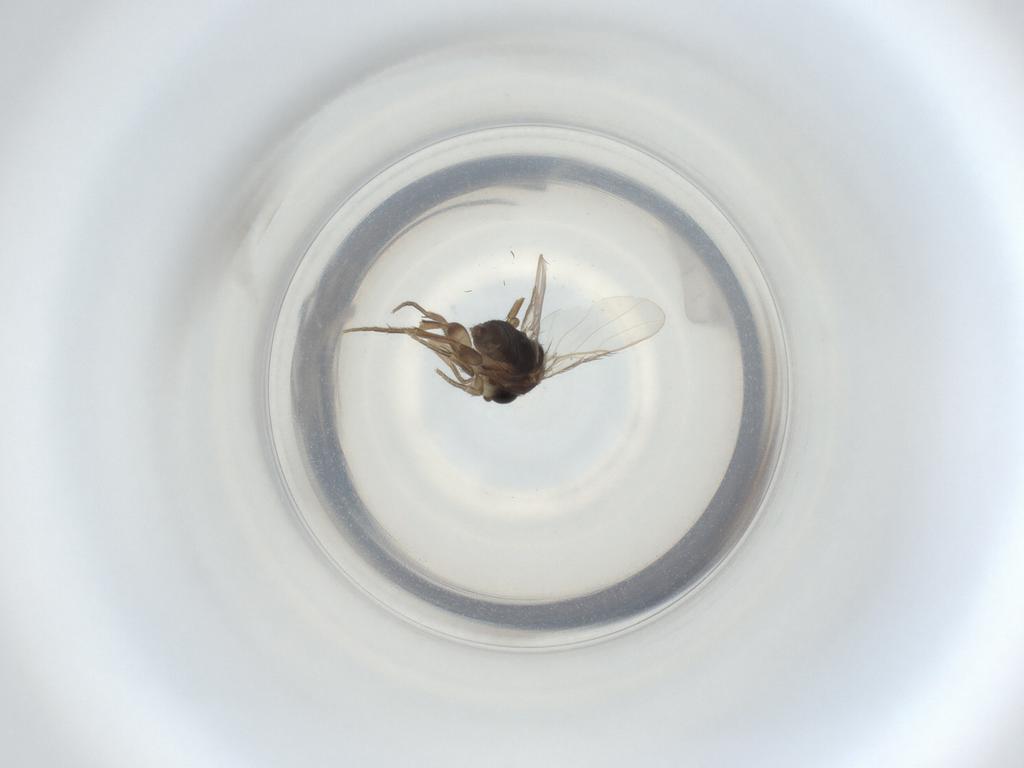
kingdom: Animalia
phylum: Arthropoda
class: Insecta
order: Diptera
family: Phoridae
